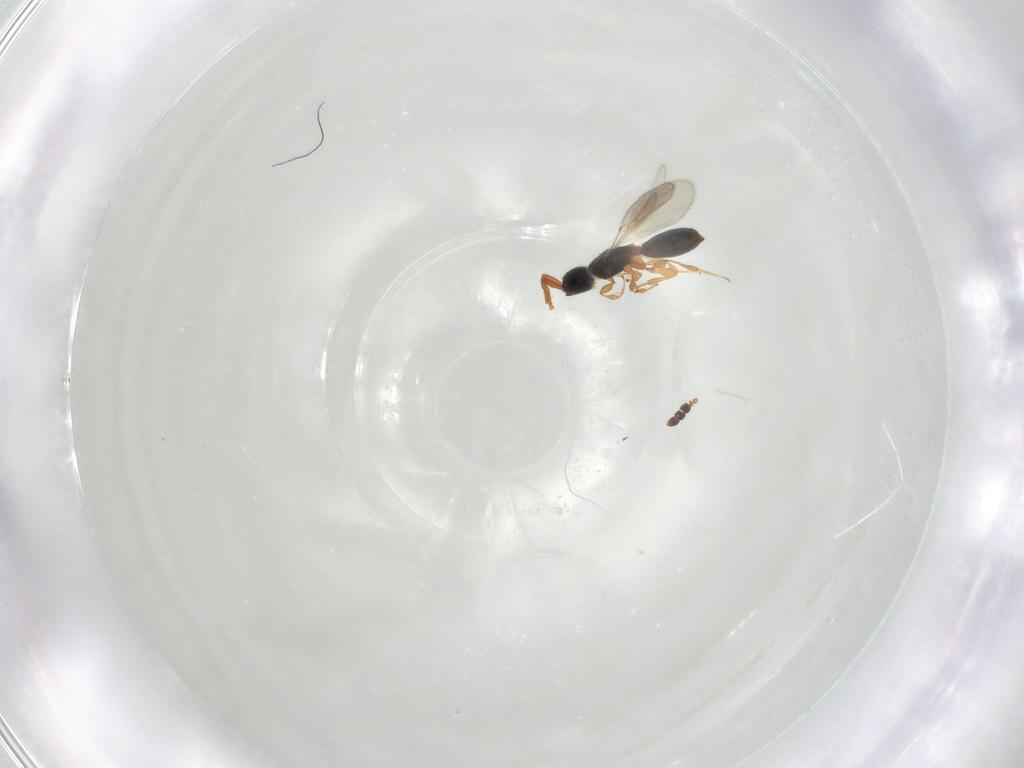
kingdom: Animalia
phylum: Arthropoda
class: Insecta
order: Hymenoptera
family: Diapriidae
